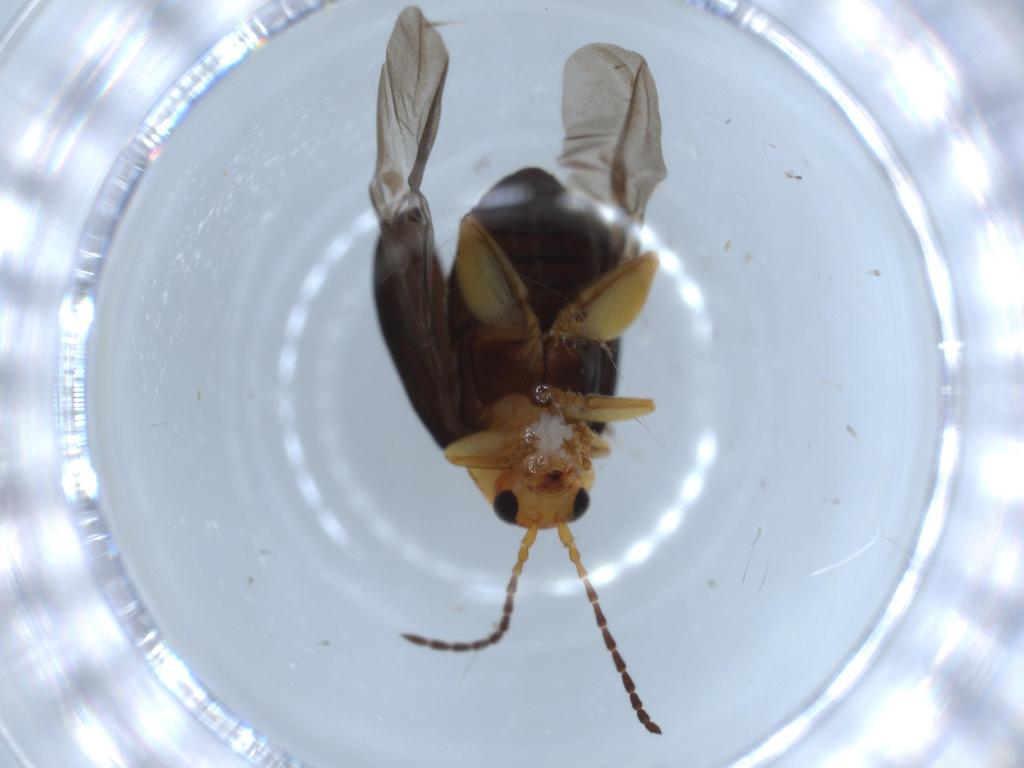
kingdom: Animalia
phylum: Arthropoda
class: Insecta
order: Coleoptera
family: Chrysomelidae
